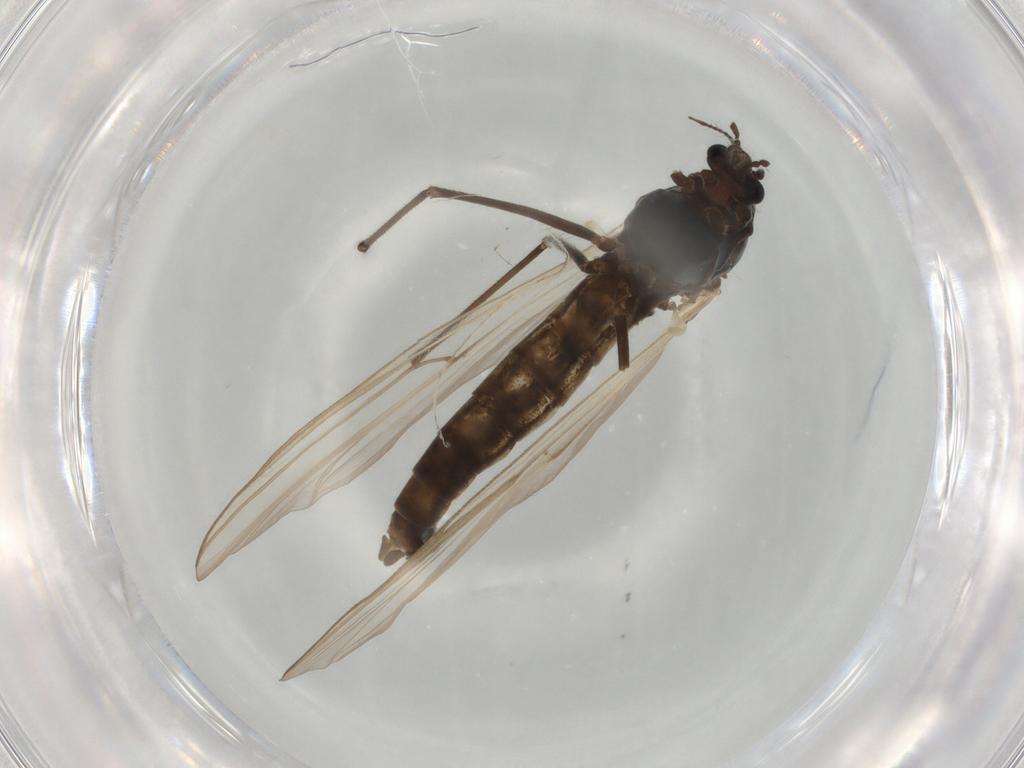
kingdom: Animalia
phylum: Arthropoda
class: Insecta
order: Diptera
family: Chironomidae
